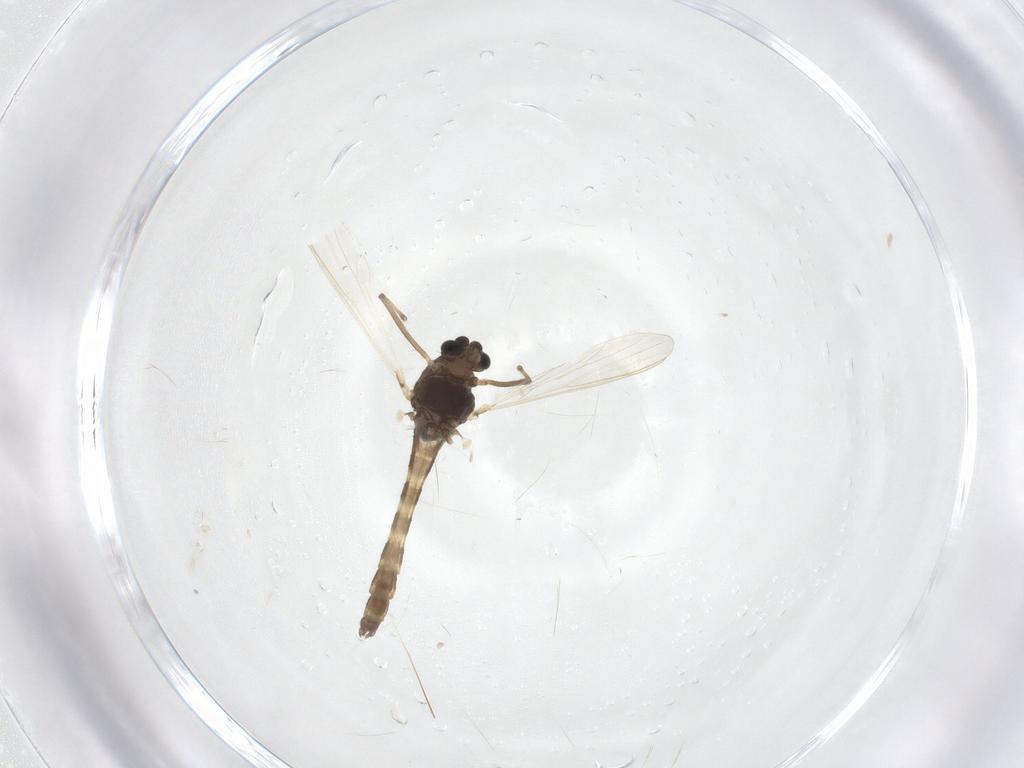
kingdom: Animalia
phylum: Arthropoda
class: Insecta
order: Diptera
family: Chironomidae
